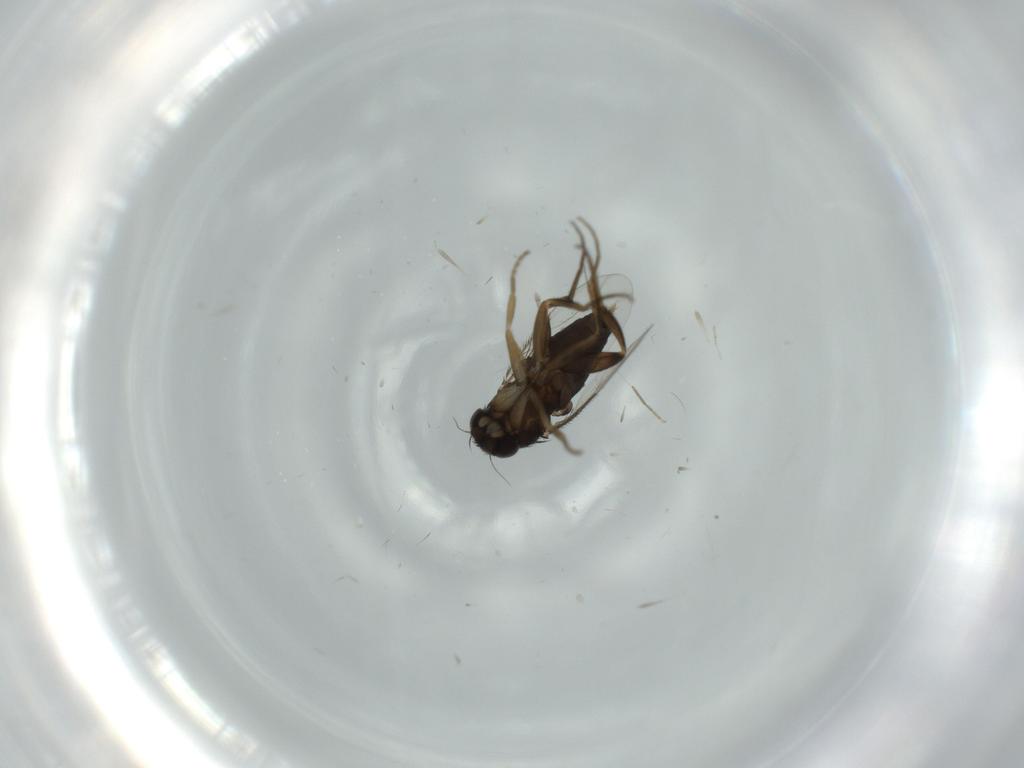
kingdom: Animalia
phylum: Arthropoda
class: Insecta
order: Diptera
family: Phoridae
